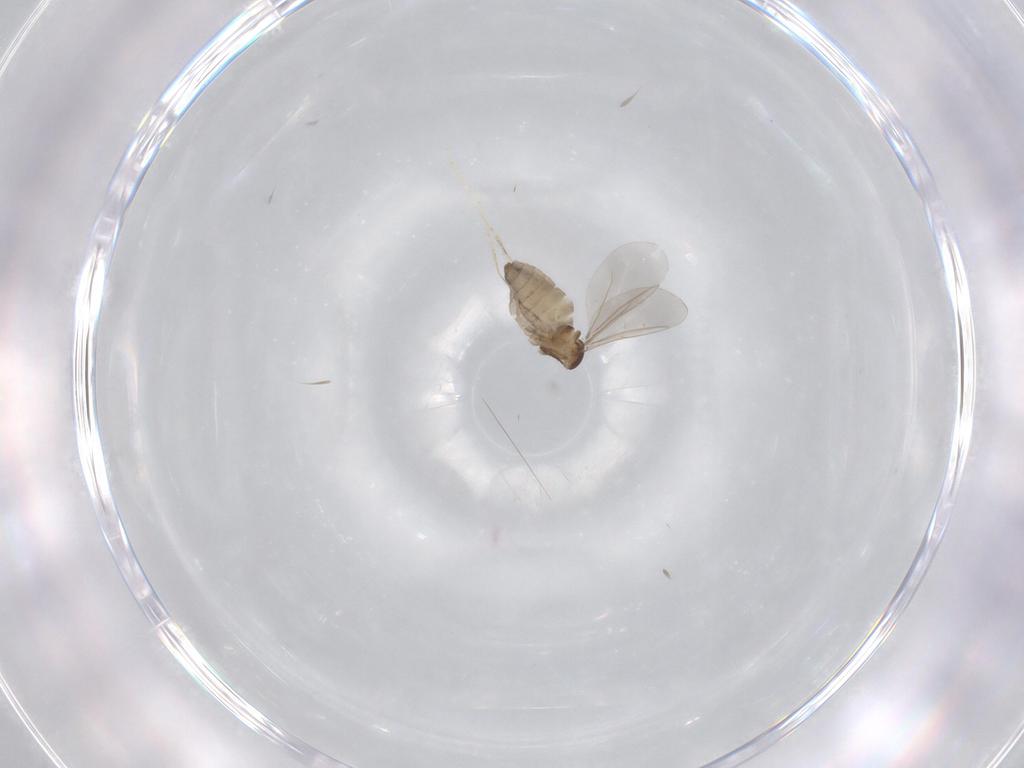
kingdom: Animalia
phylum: Arthropoda
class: Insecta
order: Diptera
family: Cecidomyiidae
